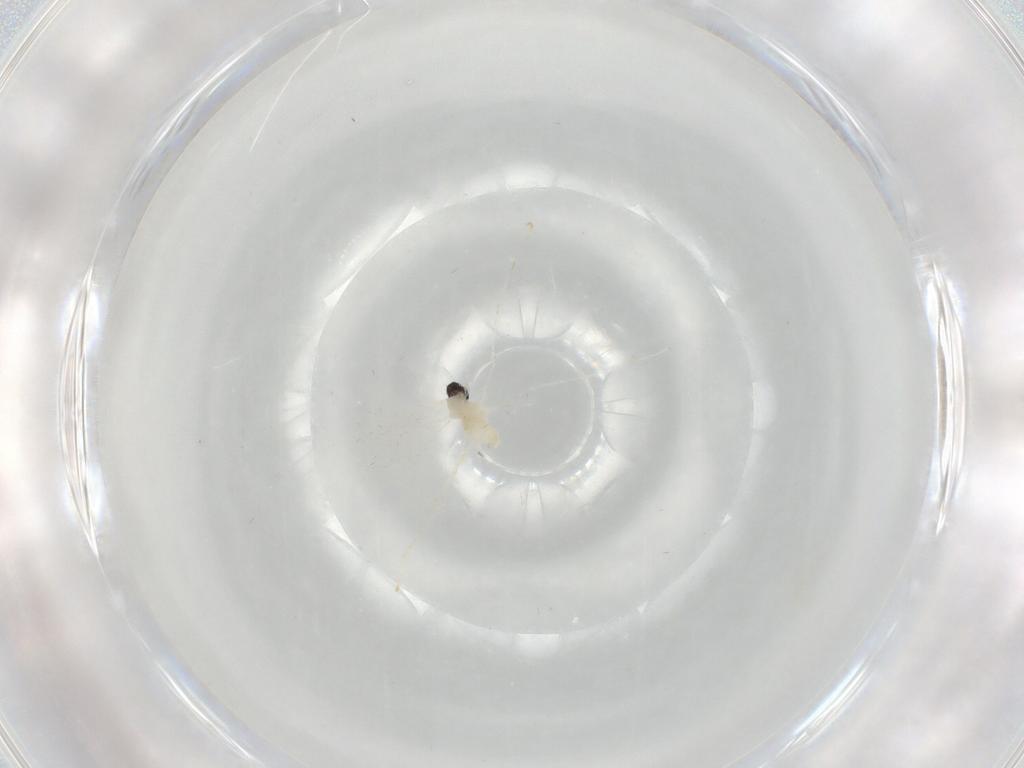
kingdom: Animalia
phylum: Arthropoda
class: Insecta
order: Diptera
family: Cecidomyiidae
